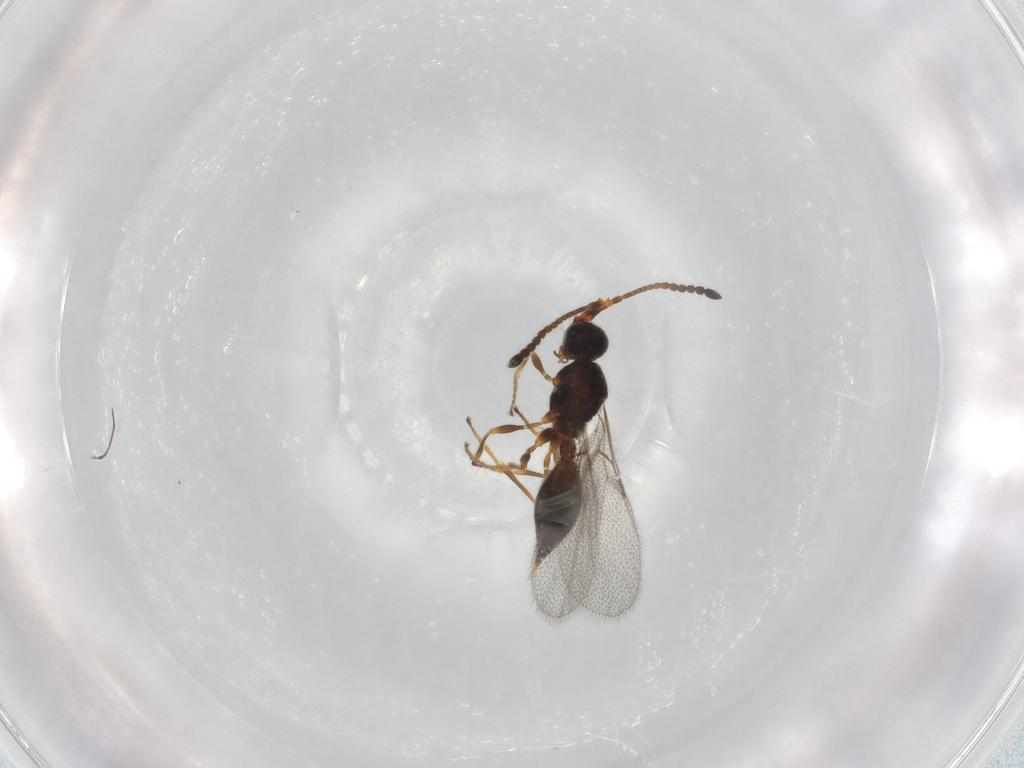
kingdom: Animalia
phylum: Arthropoda
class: Insecta
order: Hymenoptera
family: Diapriidae
